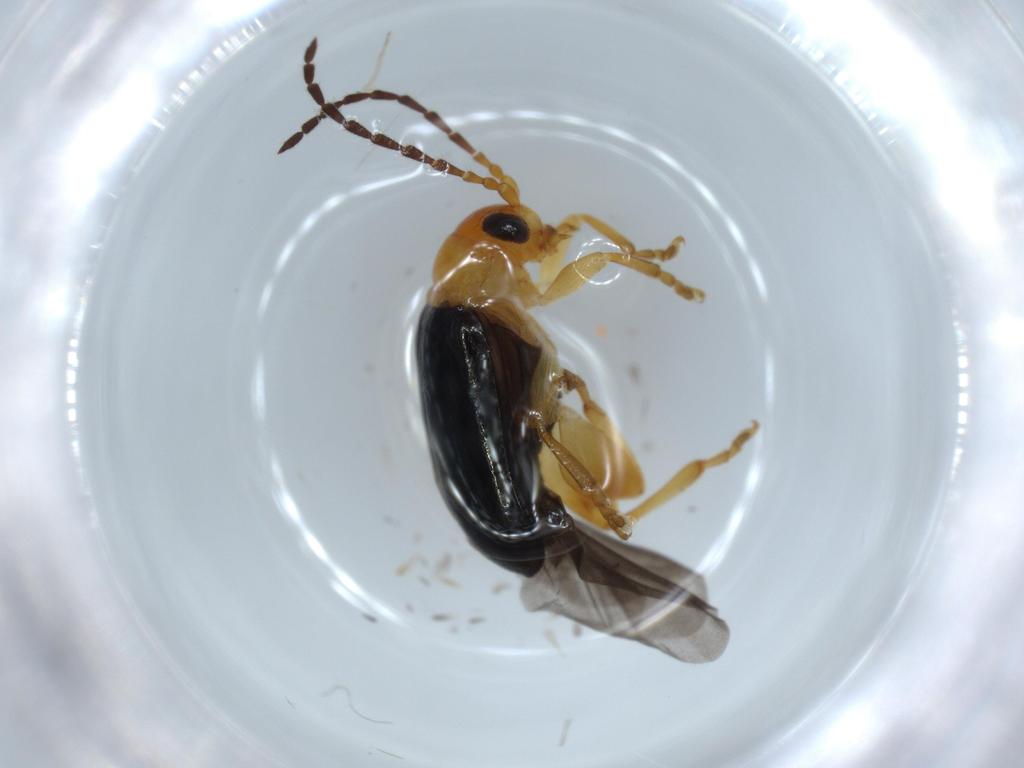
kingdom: Animalia
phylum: Arthropoda
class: Insecta
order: Coleoptera
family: Chrysomelidae
